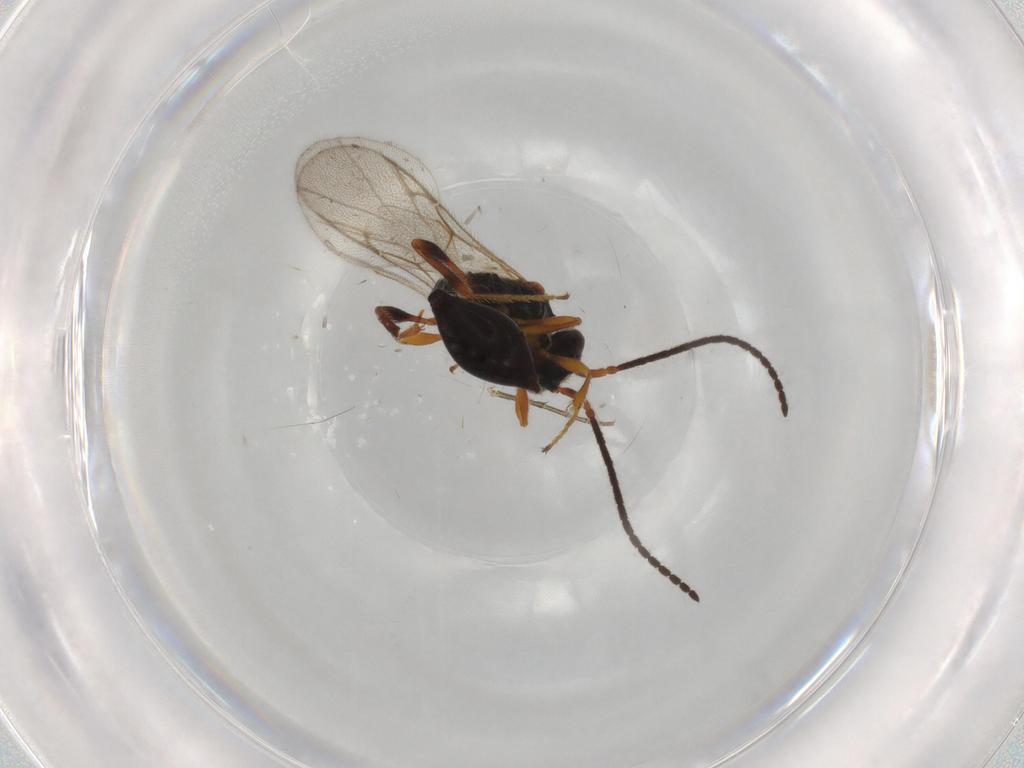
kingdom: Animalia
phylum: Arthropoda
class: Insecta
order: Hymenoptera
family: Diapriidae
